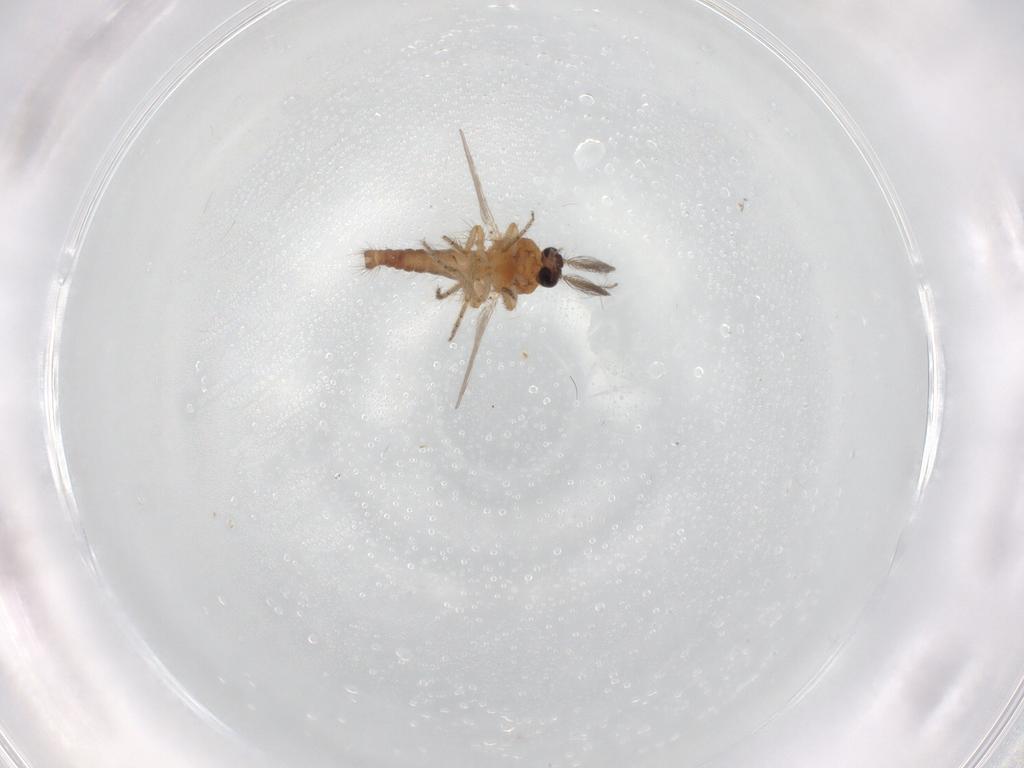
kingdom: Animalia
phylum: Arthropoda
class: Insecta
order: Diptera
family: Ceratopogonidae
